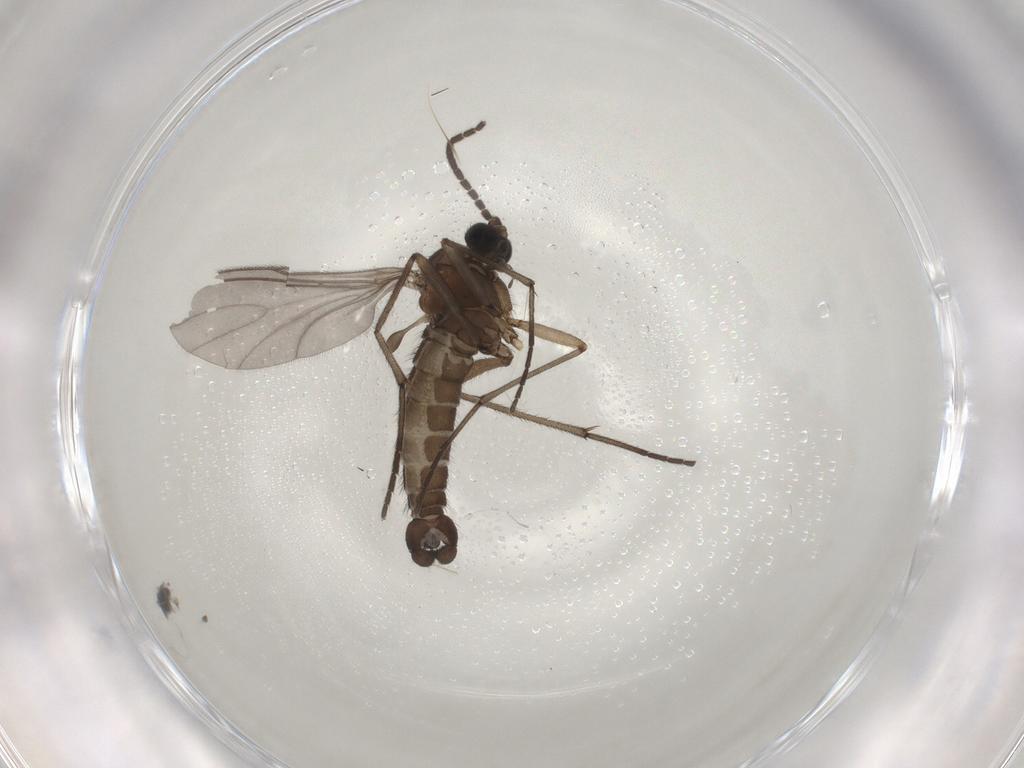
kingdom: Animalia
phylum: Arthropoda
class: Insecta
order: Diptera
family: Sciaridae
